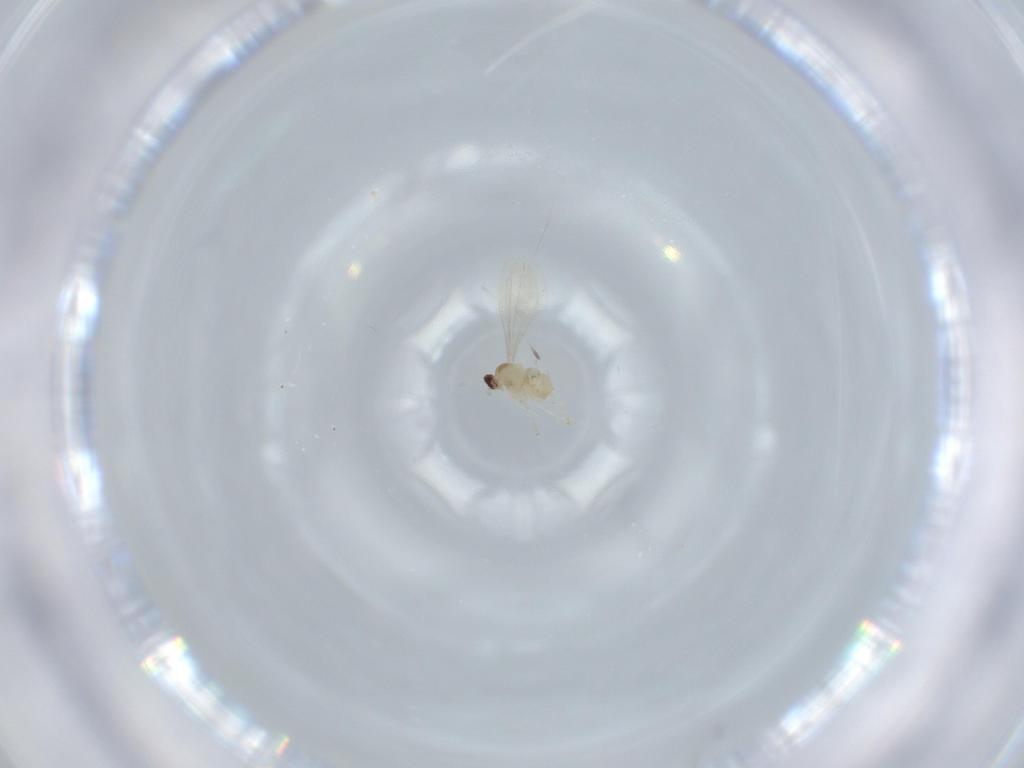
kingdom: Animalia
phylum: Arthropoda
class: Insecta
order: Diptera
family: Cecidomyiidae
